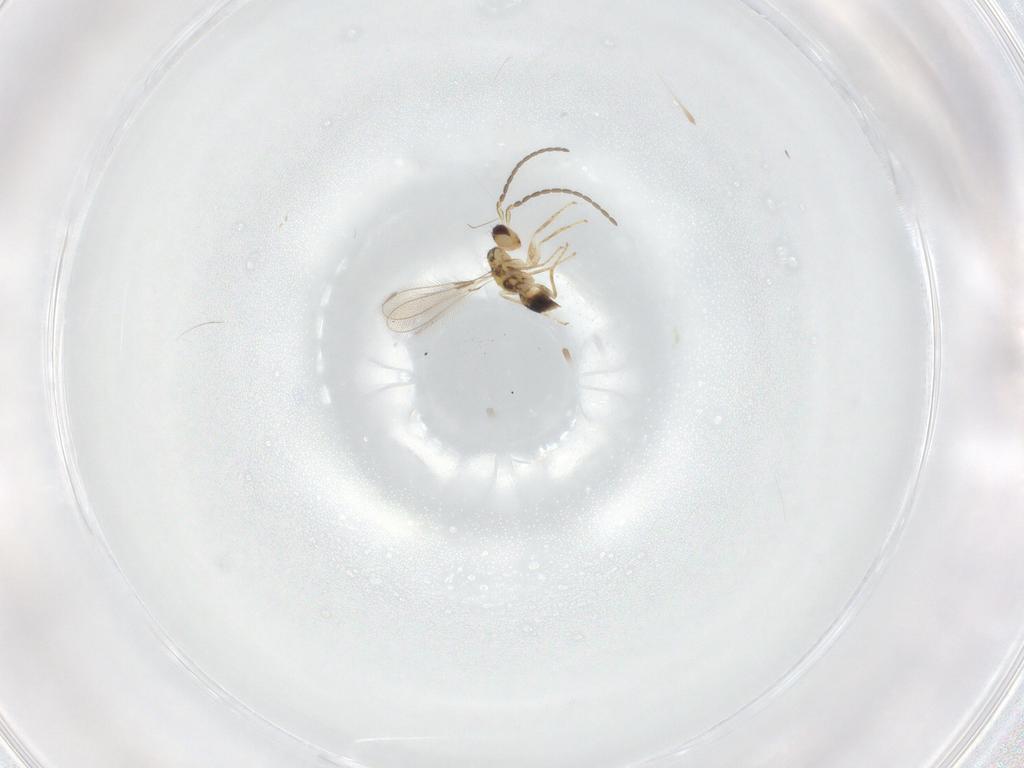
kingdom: Animalia
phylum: Arthropoda
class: Insecta
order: Hymenoptera
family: Mymaridae
